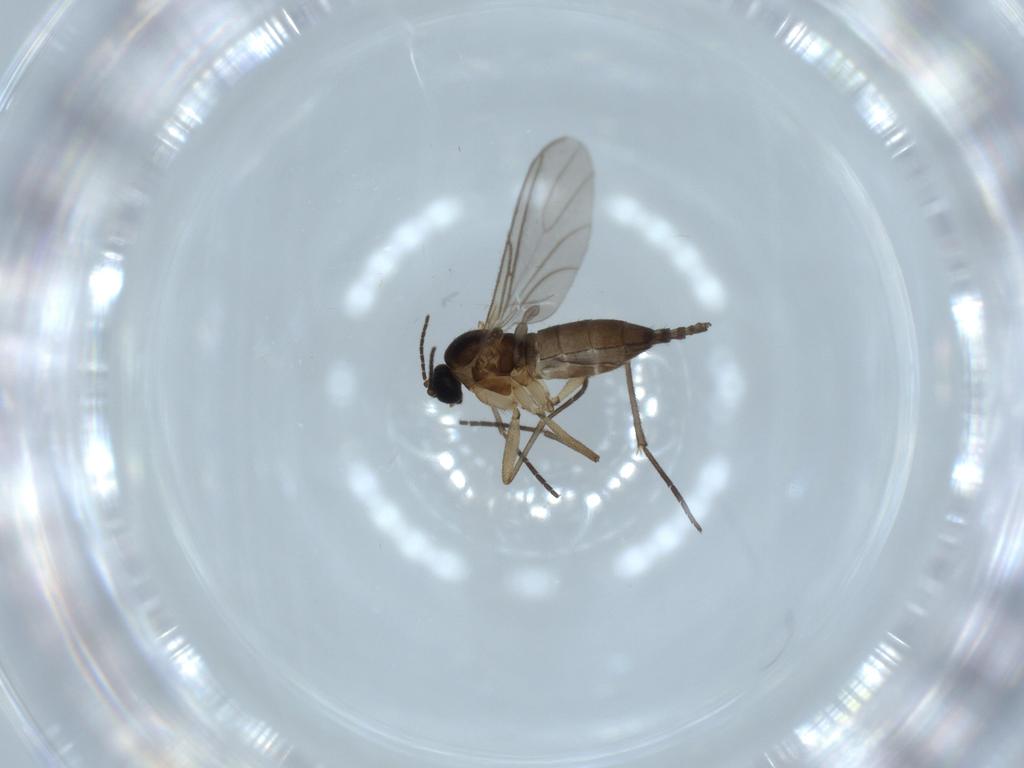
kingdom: Animalia
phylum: Arthropoda
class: Insecta
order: Diptera
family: Sciaridae
